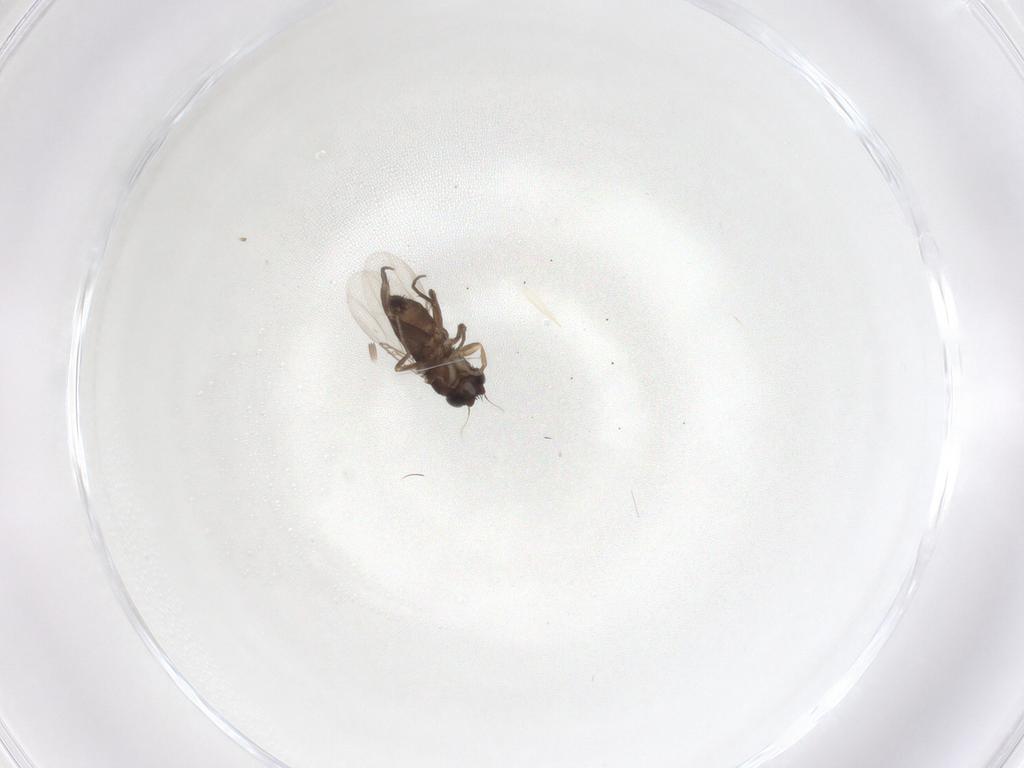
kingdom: Animalia
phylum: Arthropoda
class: Insecta
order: Diptera
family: Phoridae
